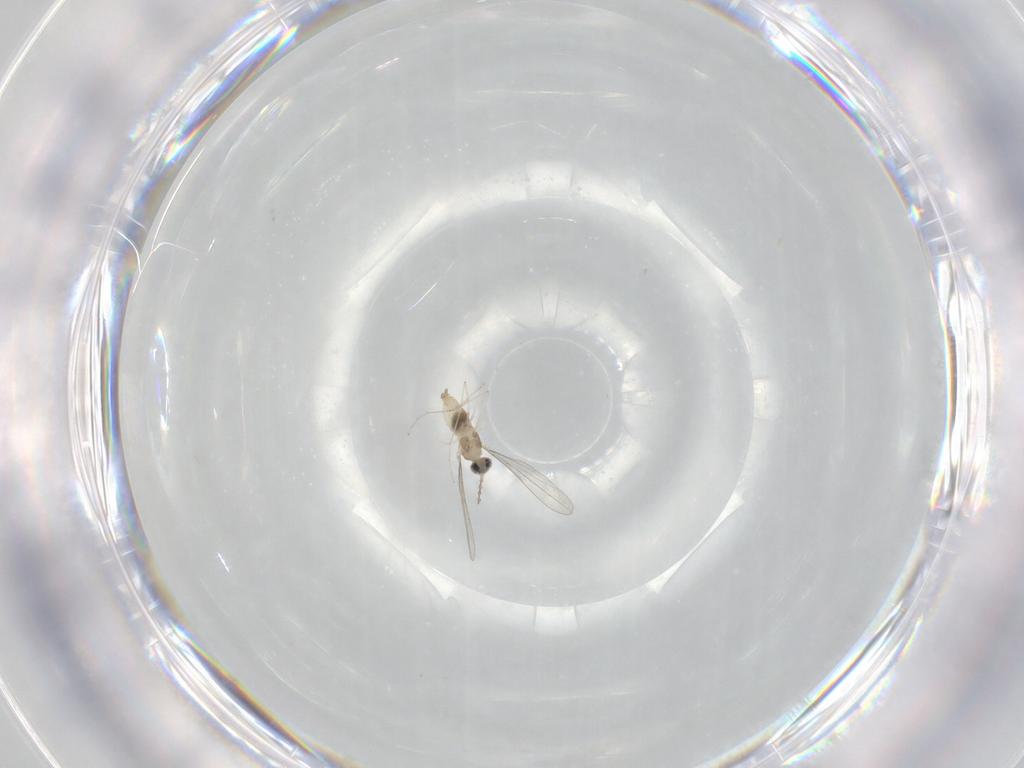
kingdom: Animalia
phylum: Arthropoda
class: Insecta
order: Diptera
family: Cecidomyiidae
